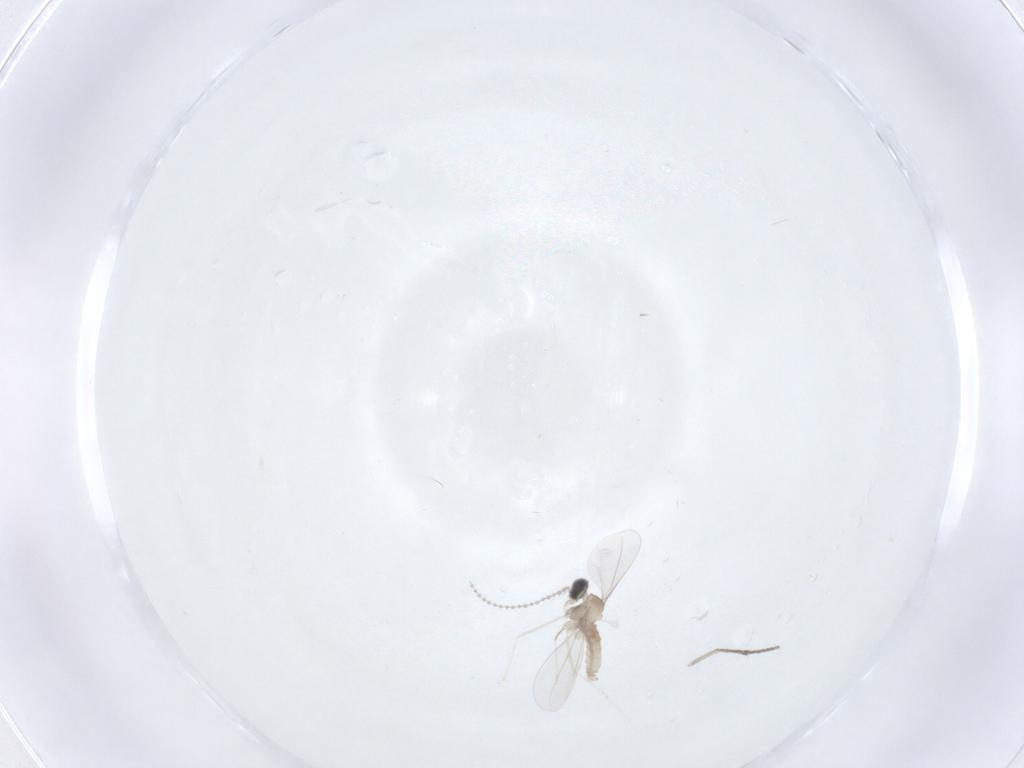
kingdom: Animalia
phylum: Arthropoda
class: Insecta
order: Diptera
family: Cecidomyiidae
